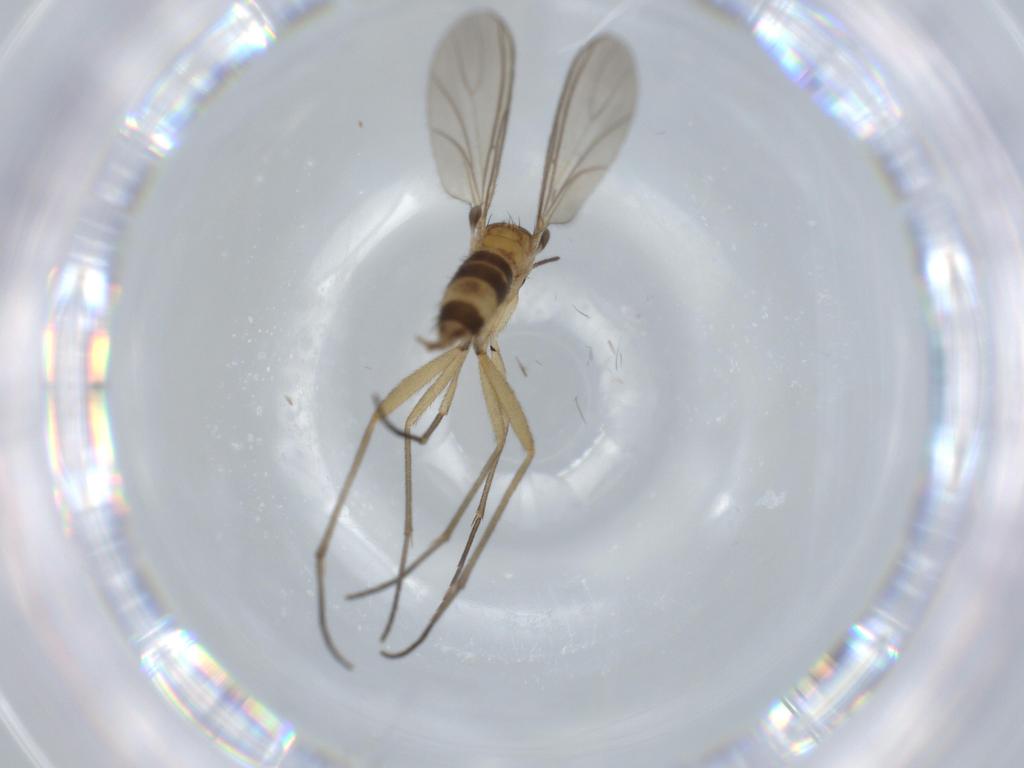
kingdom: Animalia
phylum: Arthropoda
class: Insecta
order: Diptera
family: Sciaridae
